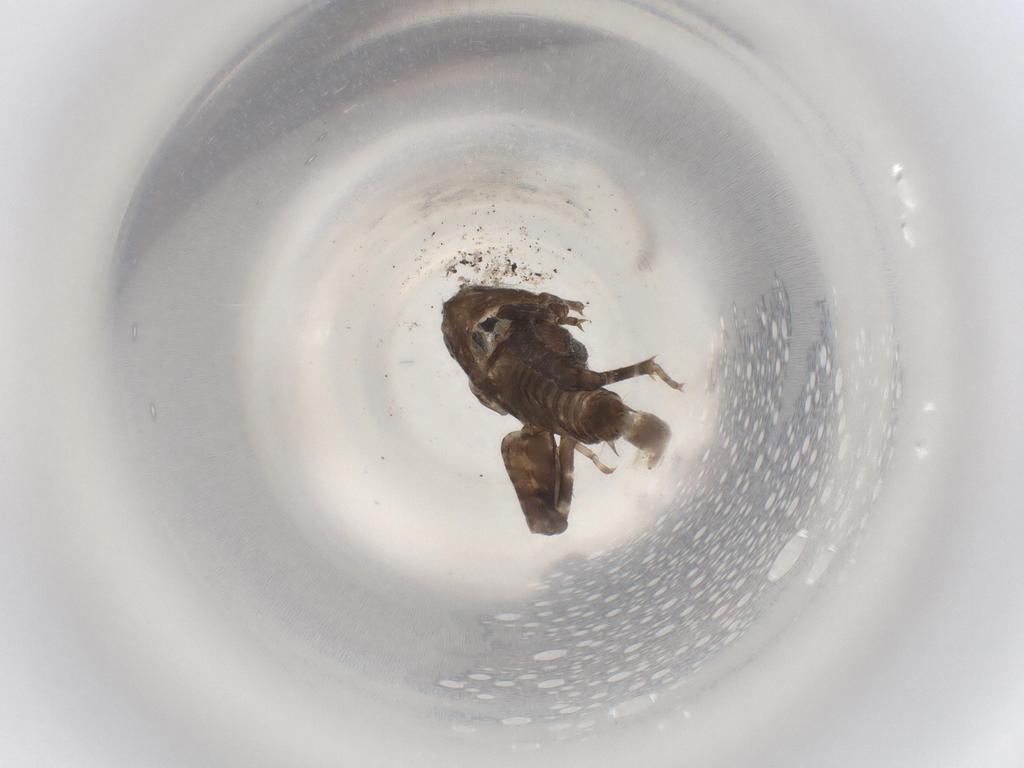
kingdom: Animalia
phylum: Arthropoda
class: Insecta
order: Orthoptera
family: Tetrigidae
